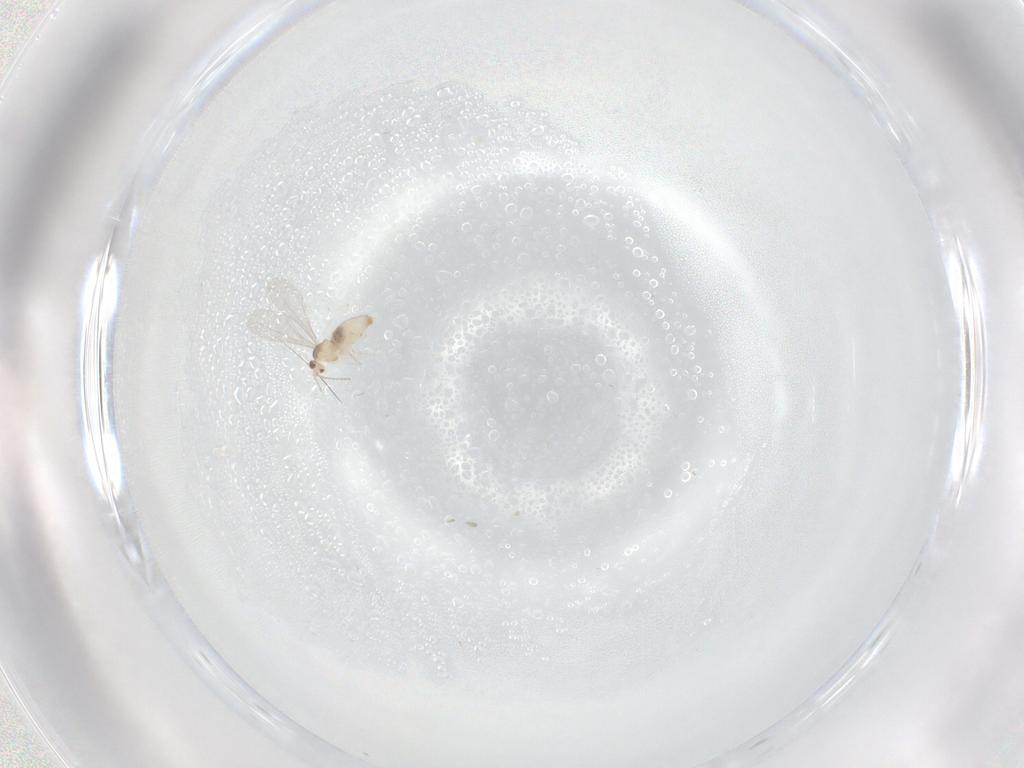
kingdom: Animalia
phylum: Arthropoda
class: Insecta
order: Diptera
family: Cecidomyiidae
